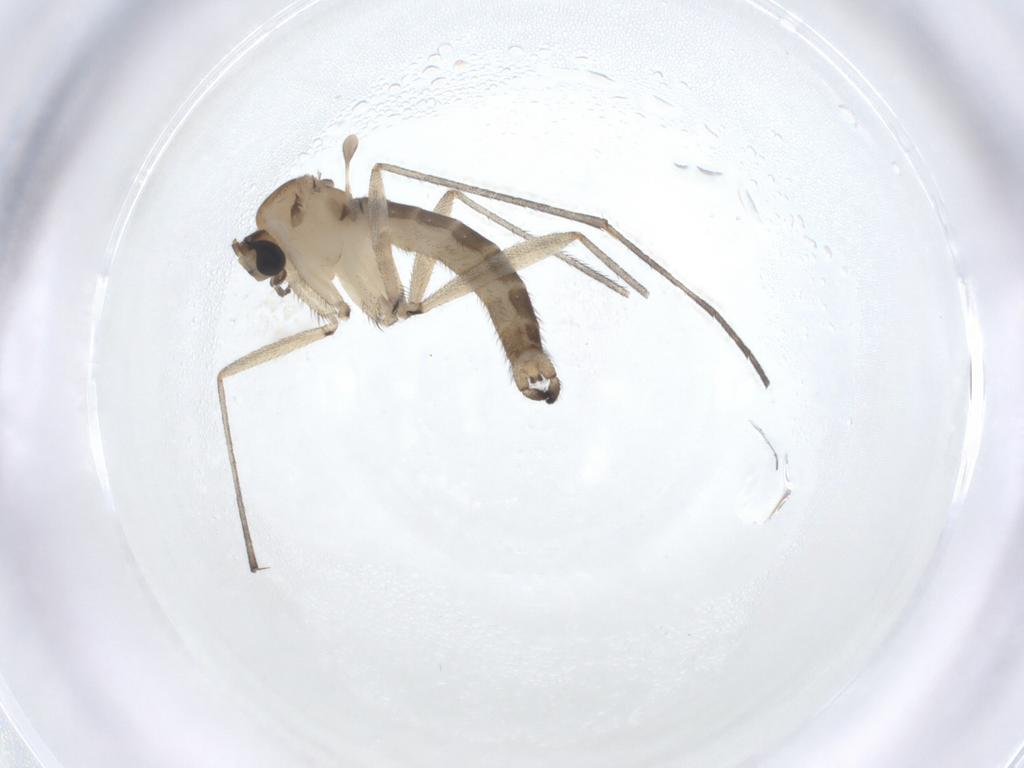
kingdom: Animalia
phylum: Arthropoda
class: Insecta
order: Diptera
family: Sciaridae
